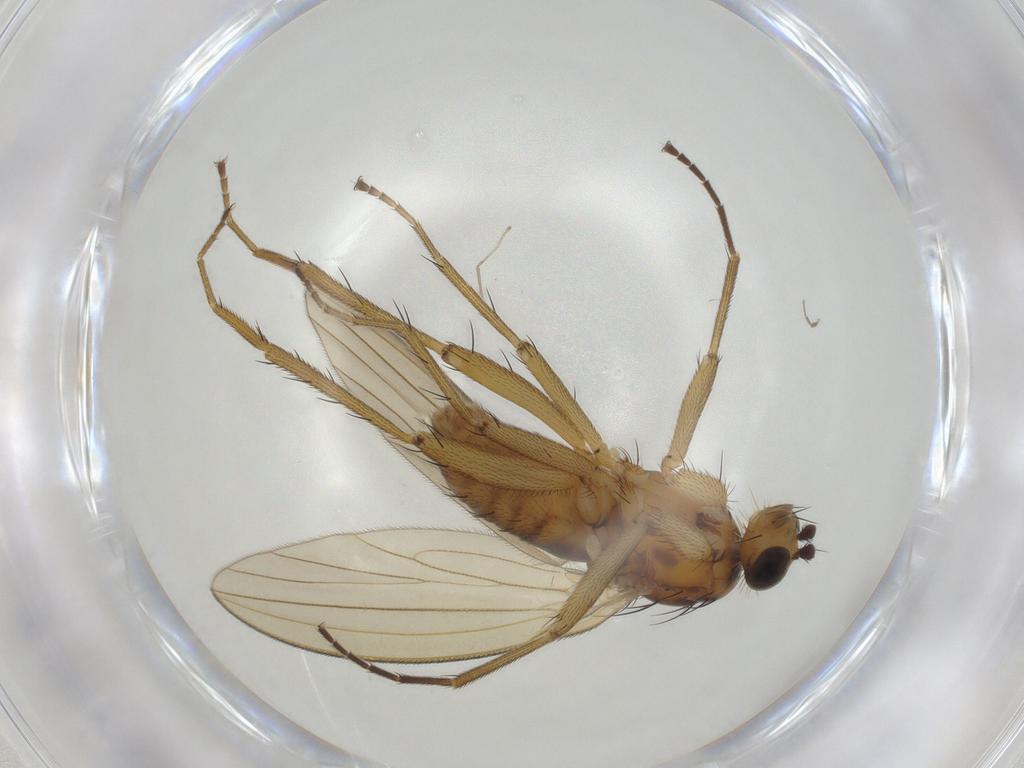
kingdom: Animalia
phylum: Arthropoda
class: Insecta
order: Diptera
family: Lonchopteridae
